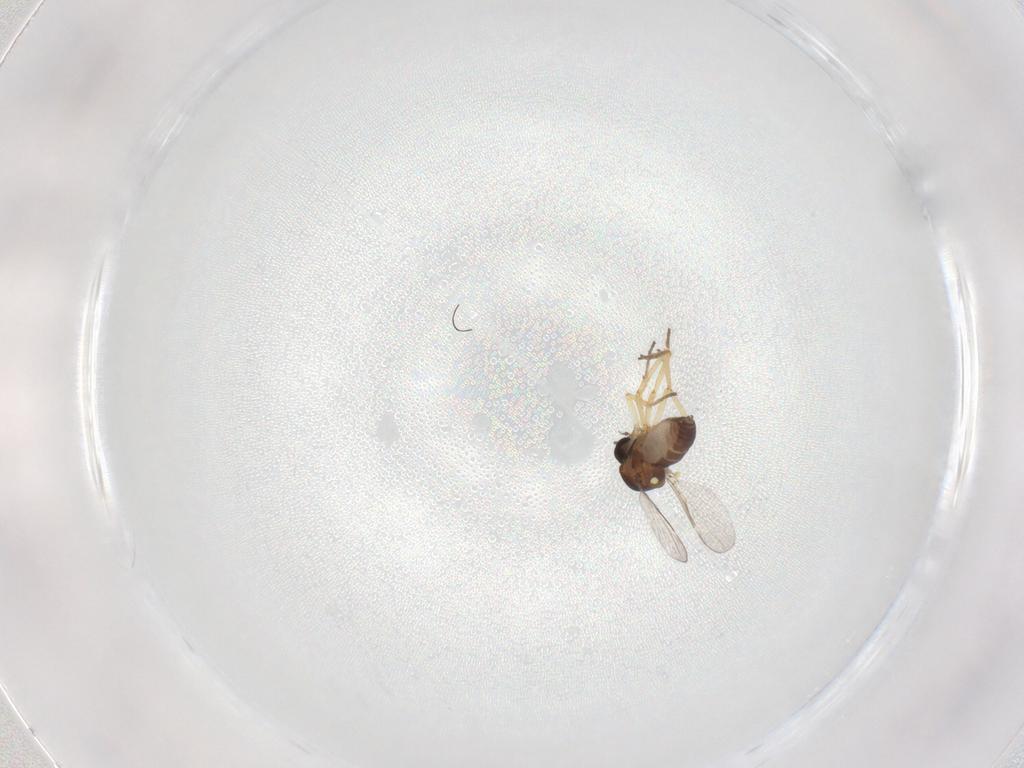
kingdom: Animalia
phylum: Arthropoda
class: Insecta
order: Diptera
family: Ceratopogonidae
